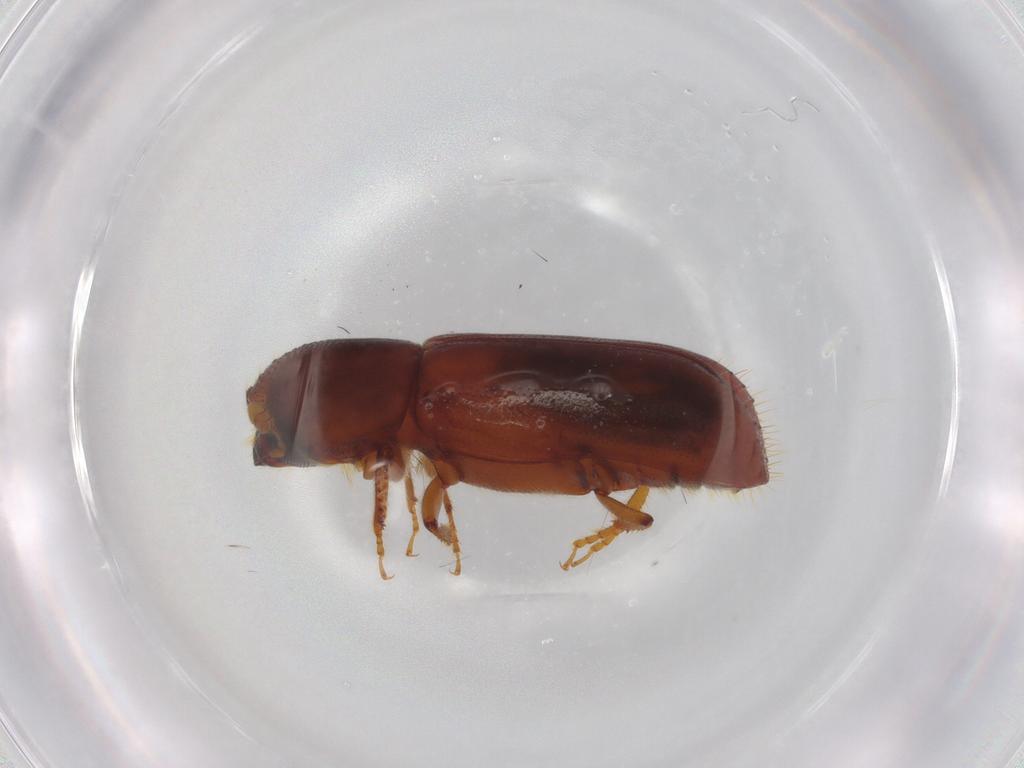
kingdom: Animalia
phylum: Arthropoda
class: Insecta
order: Coleoptera
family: Curculionidae
